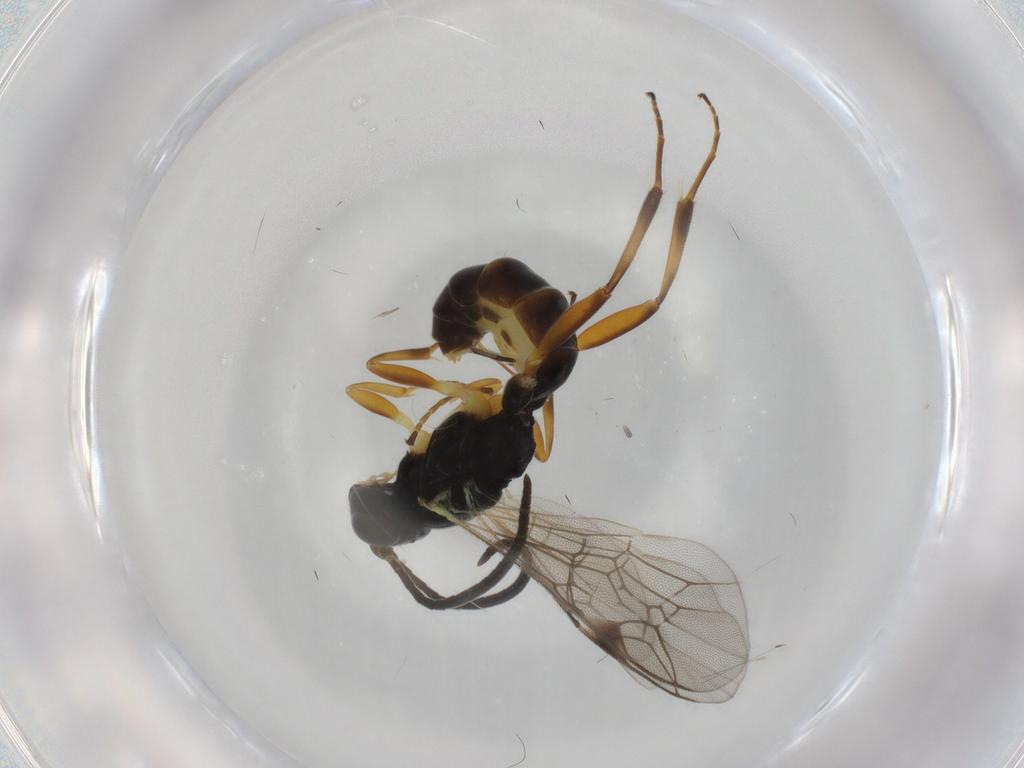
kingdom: Animalia
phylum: Arthropoda
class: Insecta
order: Hymenoptera
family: Ichneumonidae
